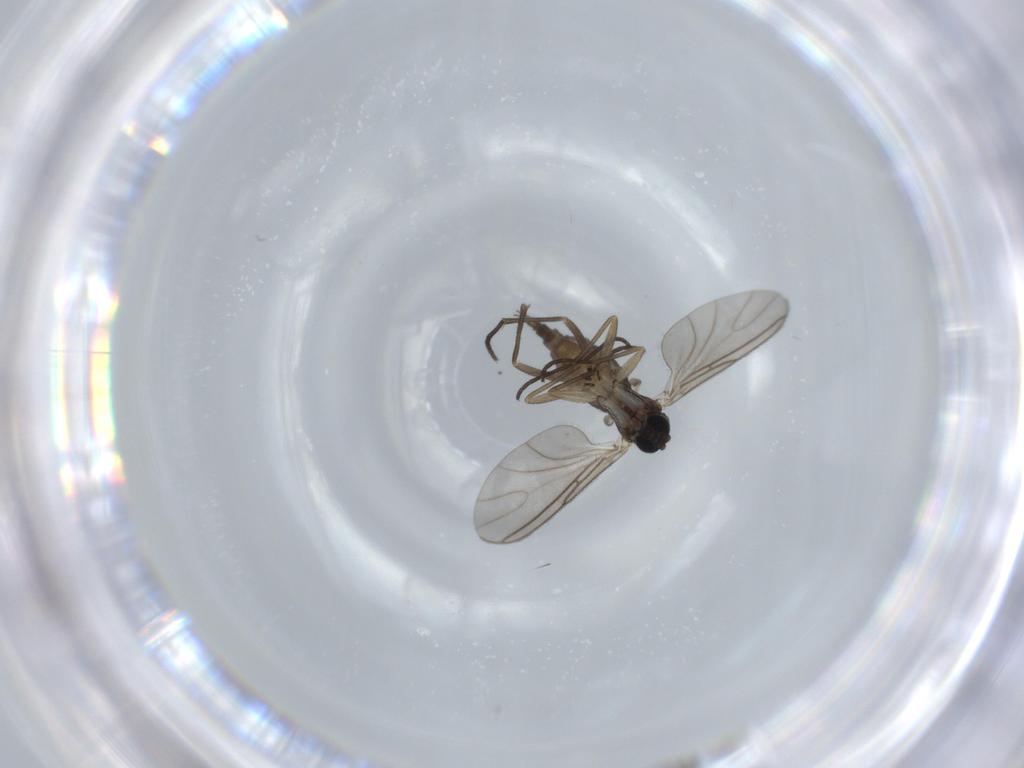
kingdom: Animalia
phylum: Arthropoda
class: Insecta
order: Diptera
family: Sciaridae
